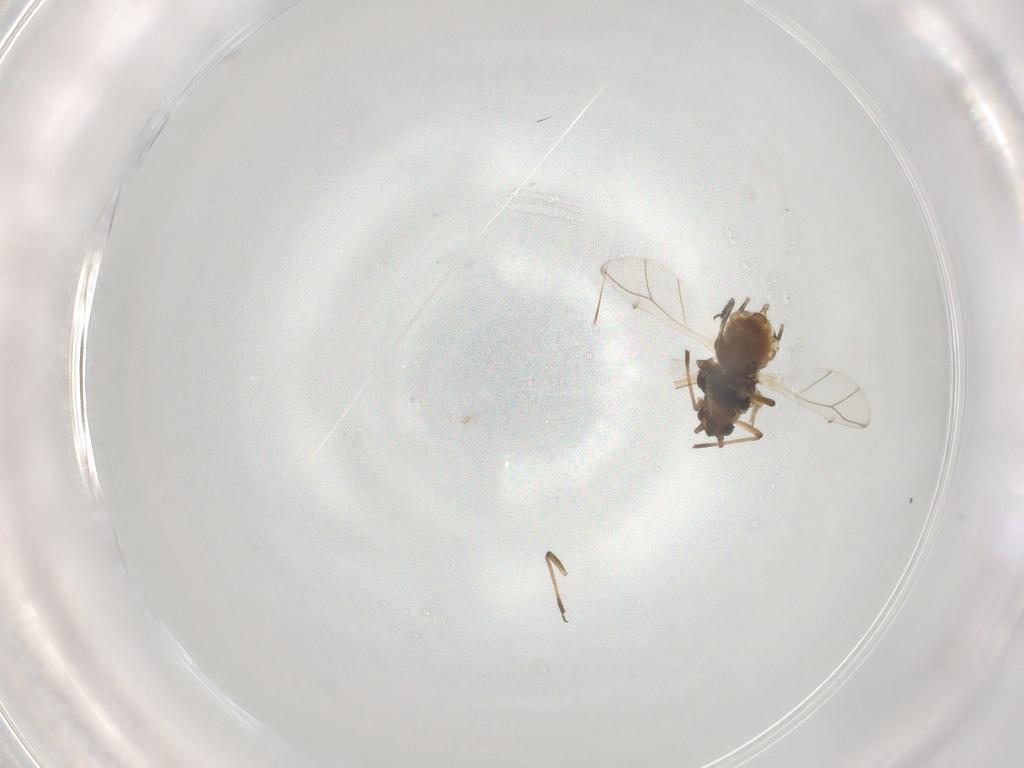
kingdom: Animalia
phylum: Arthropoda
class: Insecta
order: Hemiptera
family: Aphididae
